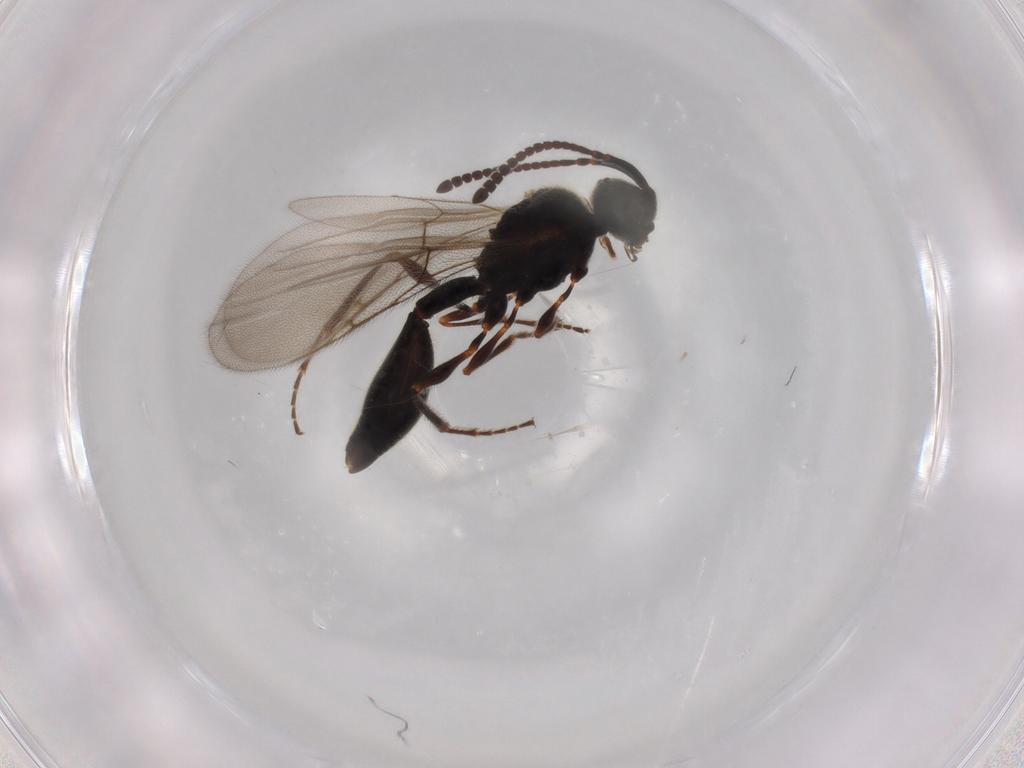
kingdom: Animalia
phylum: Arthropoda
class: Insecta
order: Hymenoptera
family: Diapriidae
